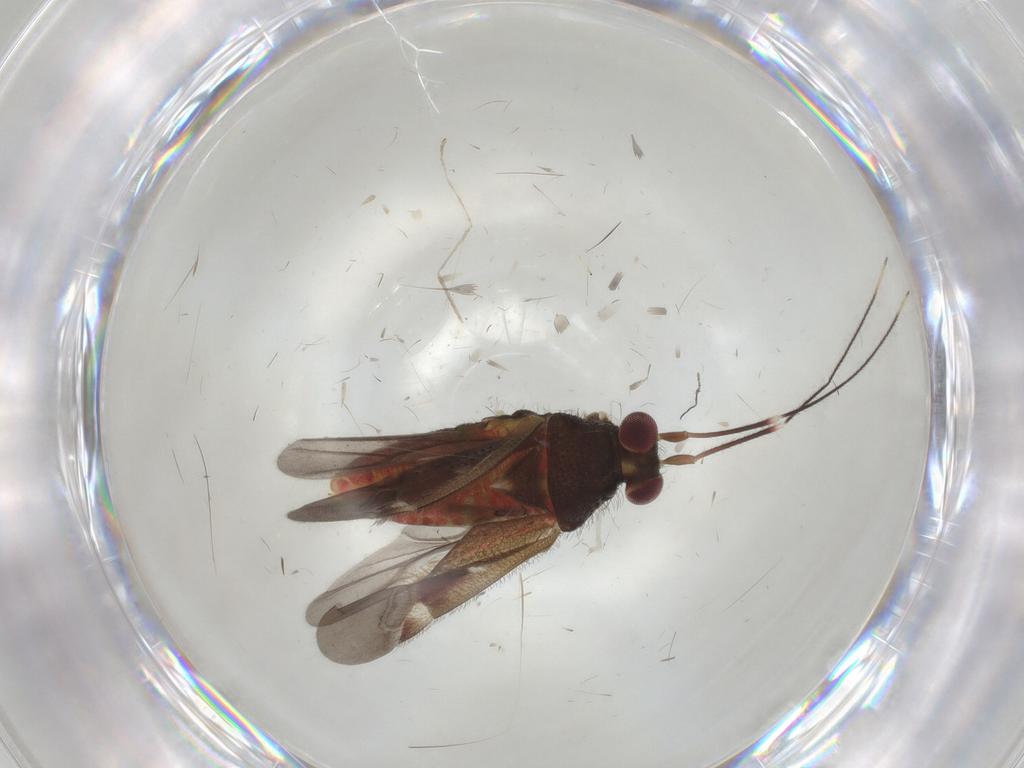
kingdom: Animalia
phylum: Arthropoda
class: Insecta
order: Hemiptera
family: Miridae
